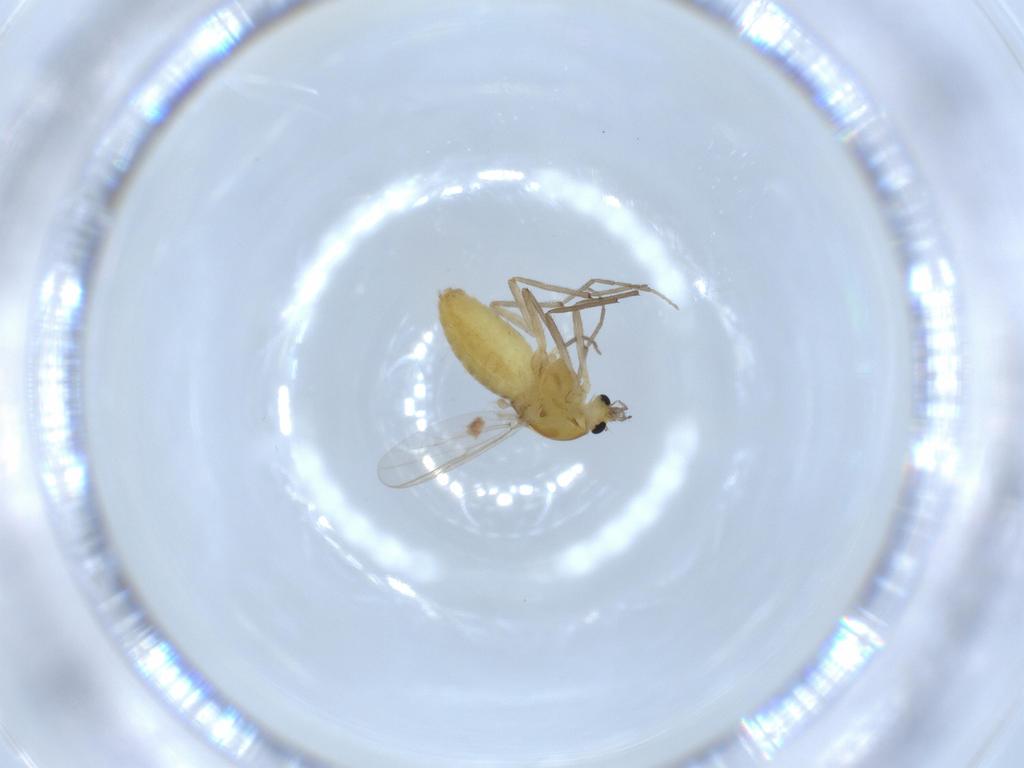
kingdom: Animalia
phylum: Arthropoda
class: Insecta
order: Diptera
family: Chironomidae
